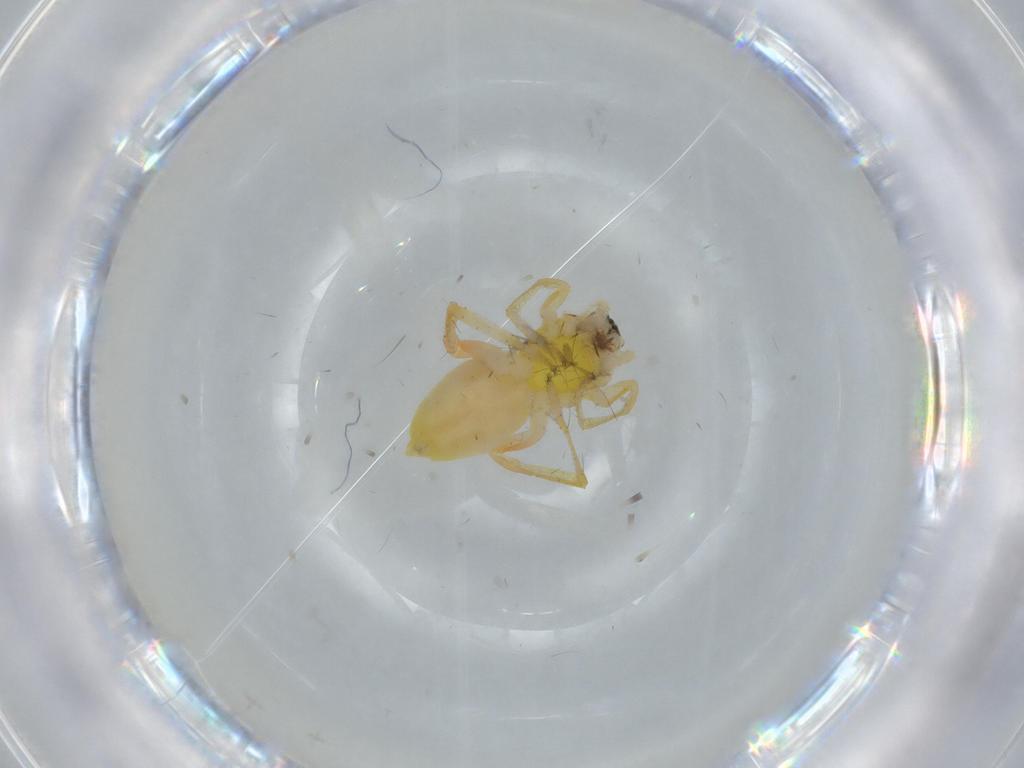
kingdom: Animalia
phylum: Arthropoda
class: Arachnida
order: Araneae
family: Anyphaenidae
